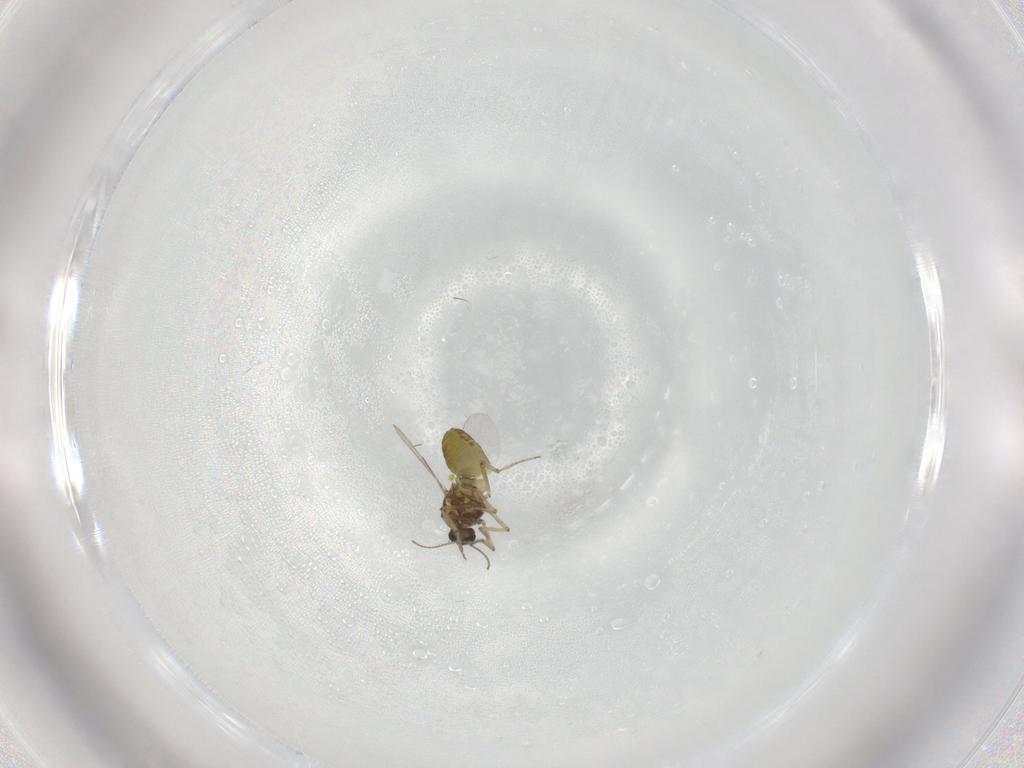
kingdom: Animalia
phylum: Arthropoda
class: Insecta
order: Diptera
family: Ceratopogonidae
